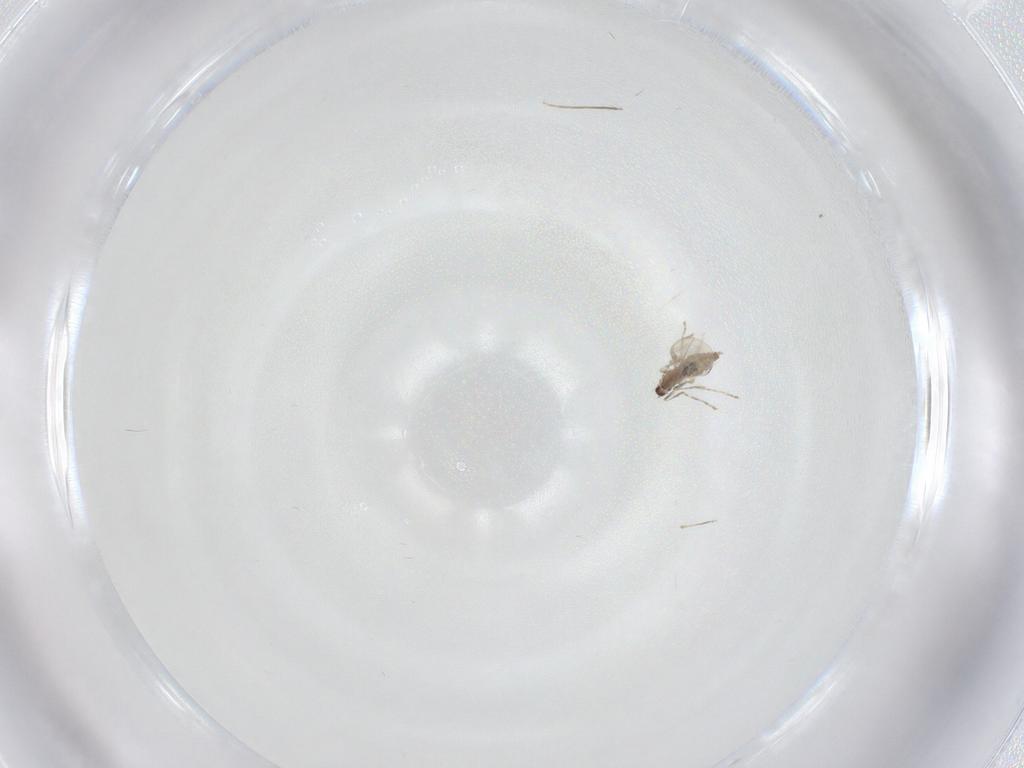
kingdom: Animalia
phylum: Arthropoda
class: Insecta
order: Diptera
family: Cecidomyiidae
